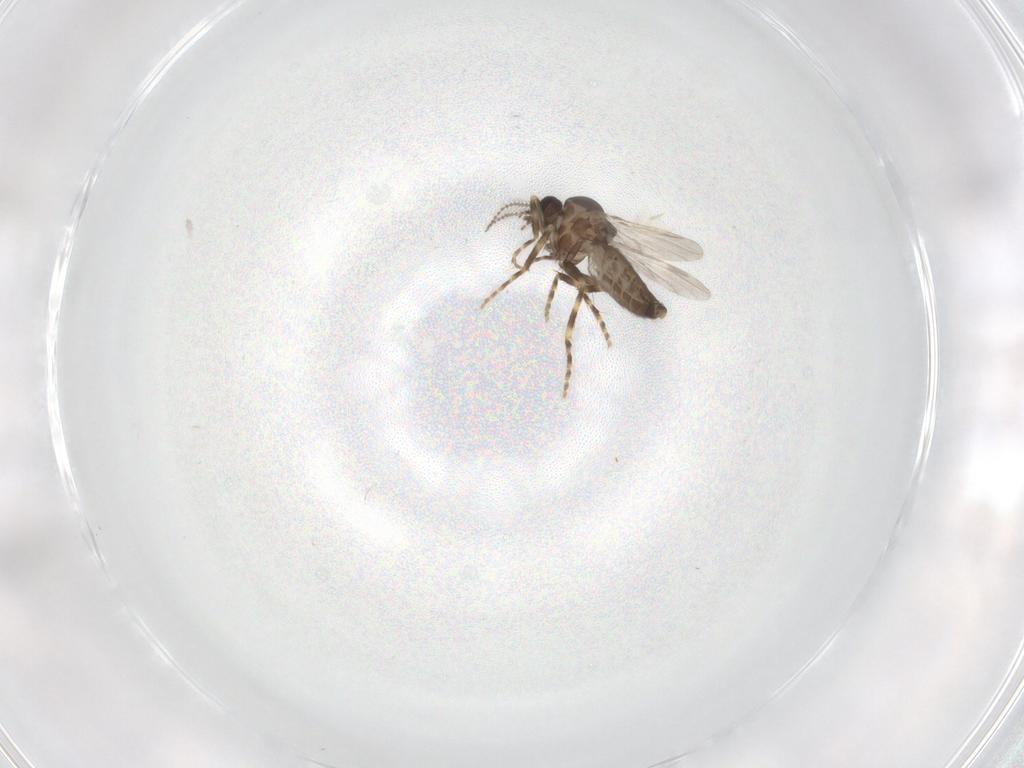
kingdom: Animalia
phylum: Arthropoda
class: Insecta
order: Diptera
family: Ceratopogonidae
